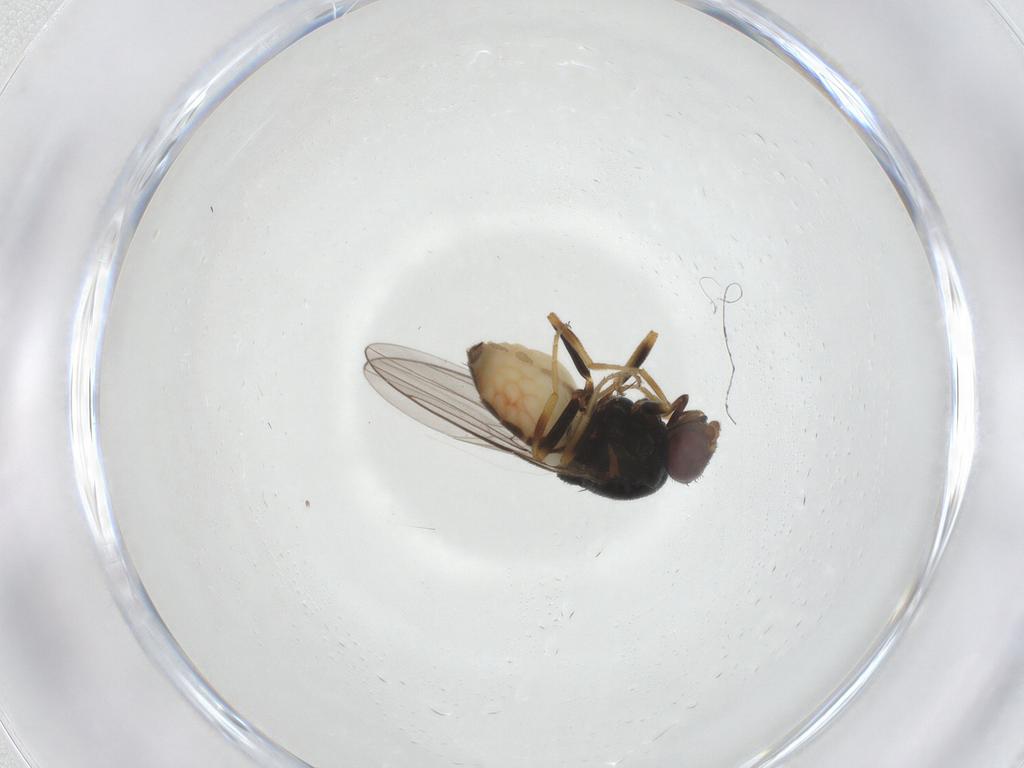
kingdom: Animalia
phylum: Arthropoda
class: Insecta
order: Diptera
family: Chloropidae
